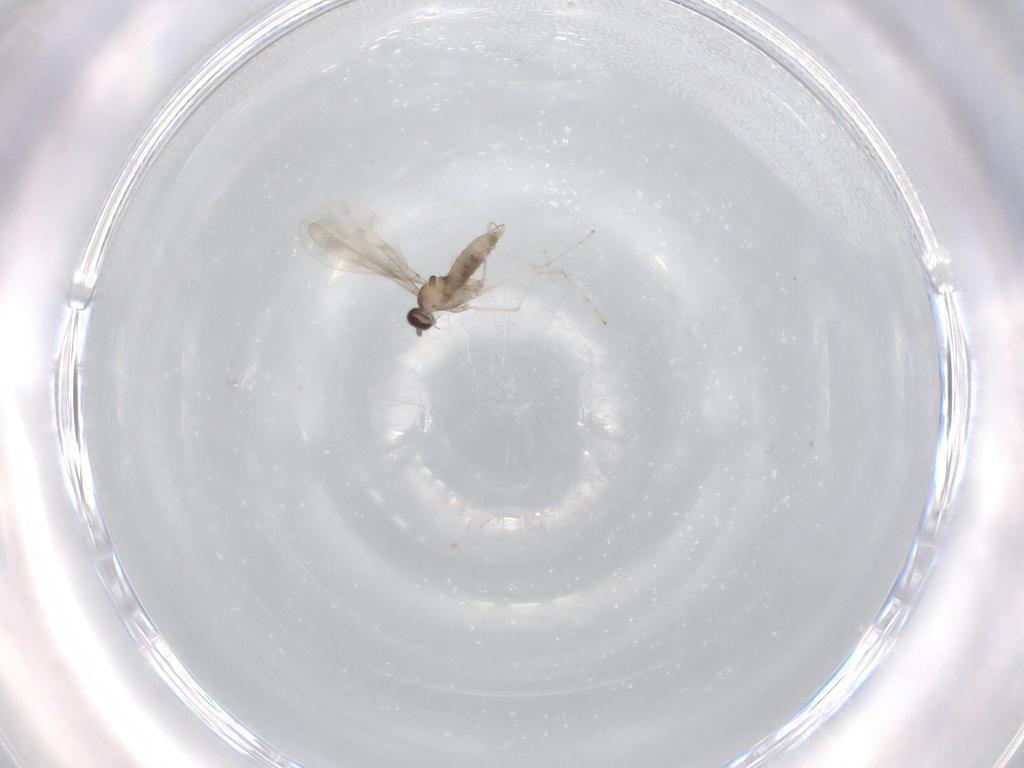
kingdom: Animalia
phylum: Arthropoda
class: Insecta
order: Diptera
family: Cecidomyiidae
